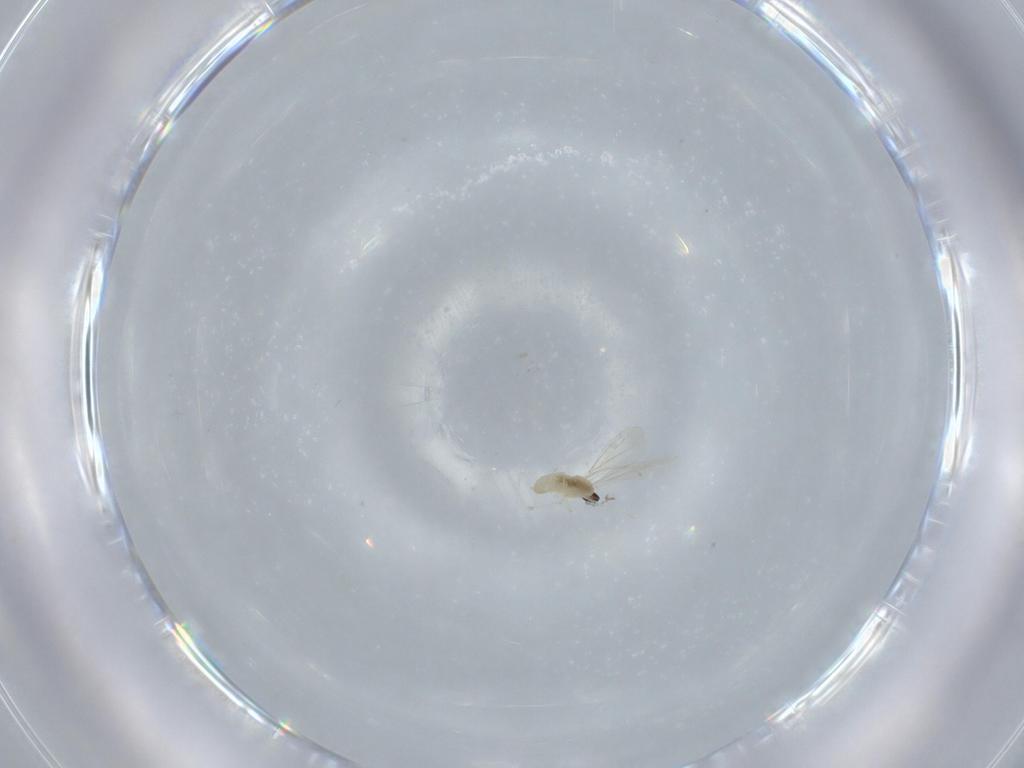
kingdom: Animalia
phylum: Arthropoda
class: Insecta
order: Diptera
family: Cecidomyiidae
